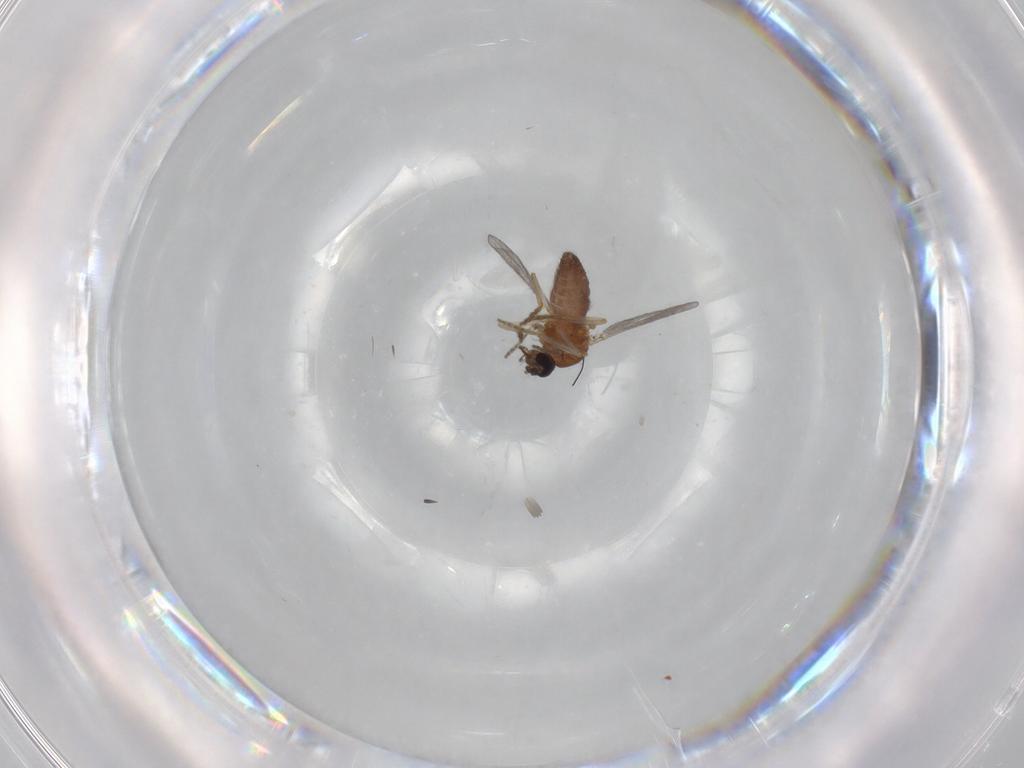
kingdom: Animalia
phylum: Arthropoda
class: Insecta
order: Diptera
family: Ceratopogonidae
